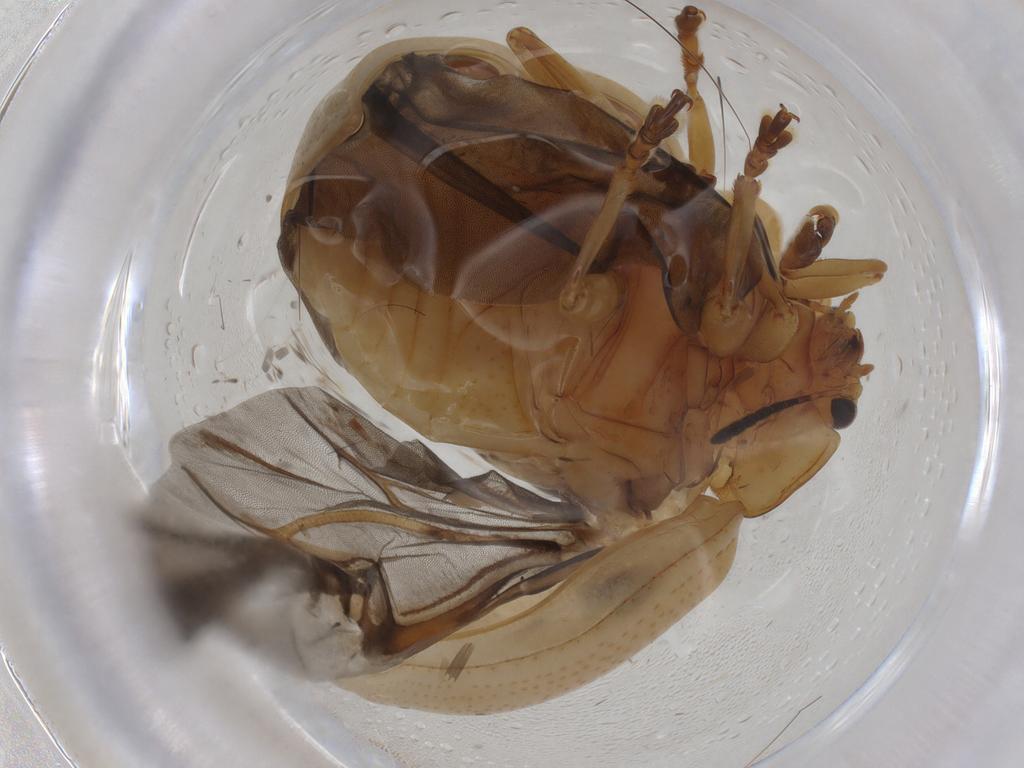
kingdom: Animalia
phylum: Arthropoda
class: Insecta
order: Coleoptera
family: Chrysomelidae
